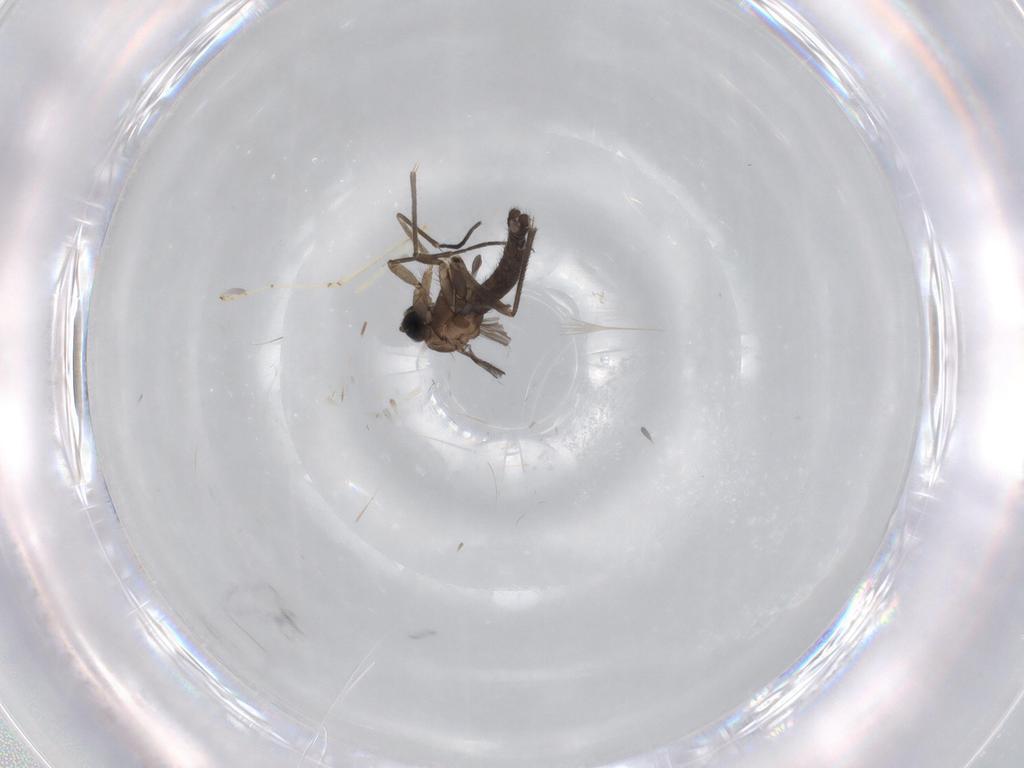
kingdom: Animalia
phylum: Arthropoda
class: Insecta
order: Diptera
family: Sciaridae
